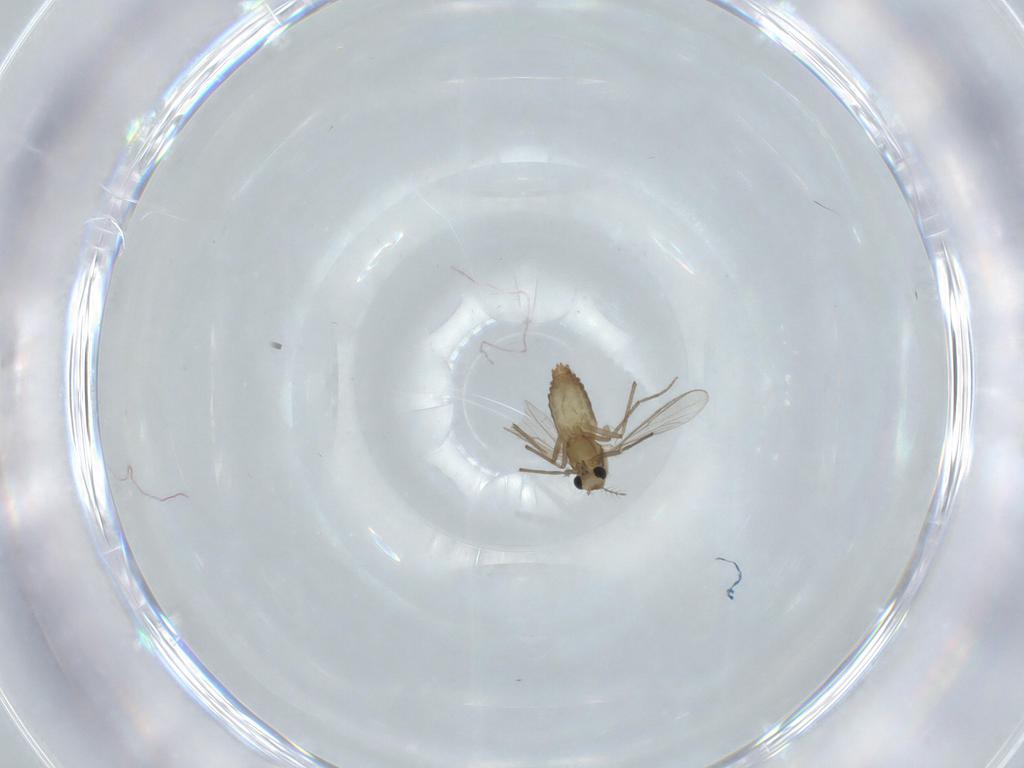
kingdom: Animalia
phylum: Arthropoda
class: Insecta
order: Diptera
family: Chironomidae
